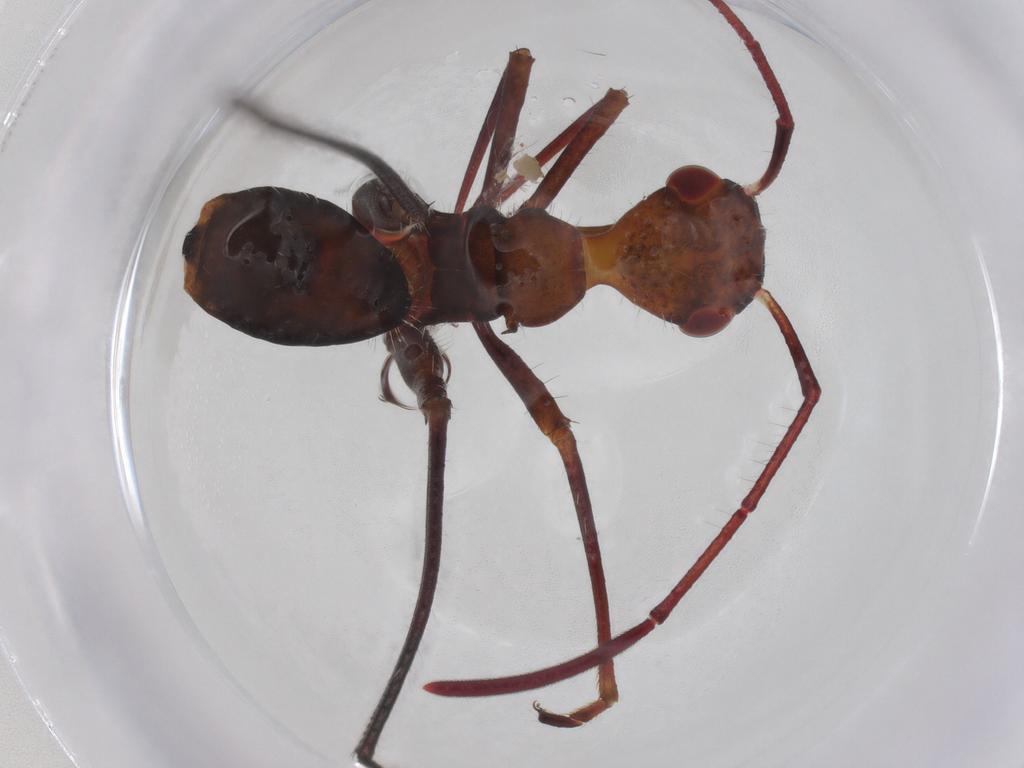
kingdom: Animalia
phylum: Arthropoda
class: Insecta
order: Hemiptera
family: Alydidae
